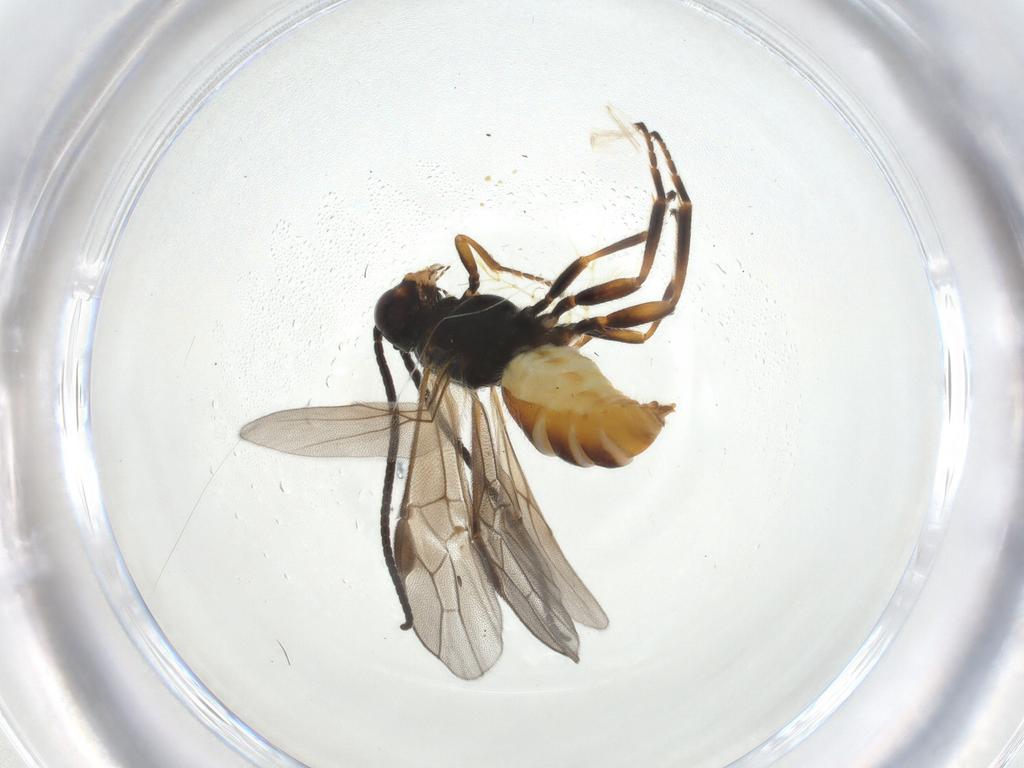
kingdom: Animalia
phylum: Arthropoda
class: Insecta
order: Hymenoptera
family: Braconidae
